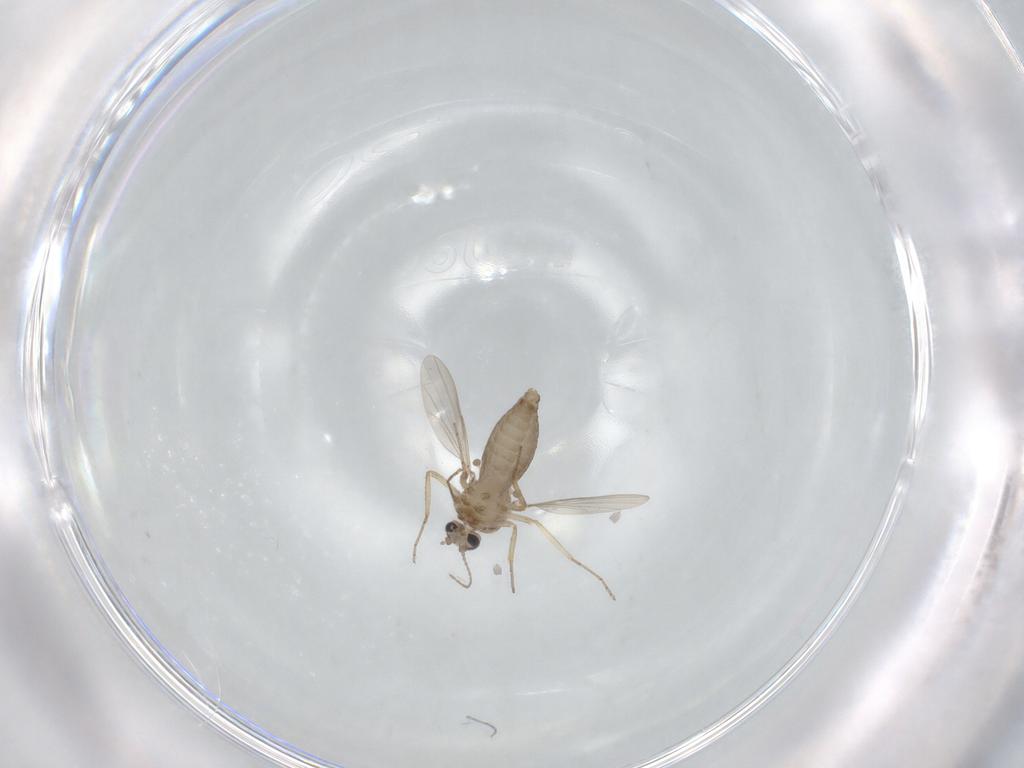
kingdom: Animalia
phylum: Arthropoda
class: Insecta
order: Diptera
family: Ceratopogonidae
